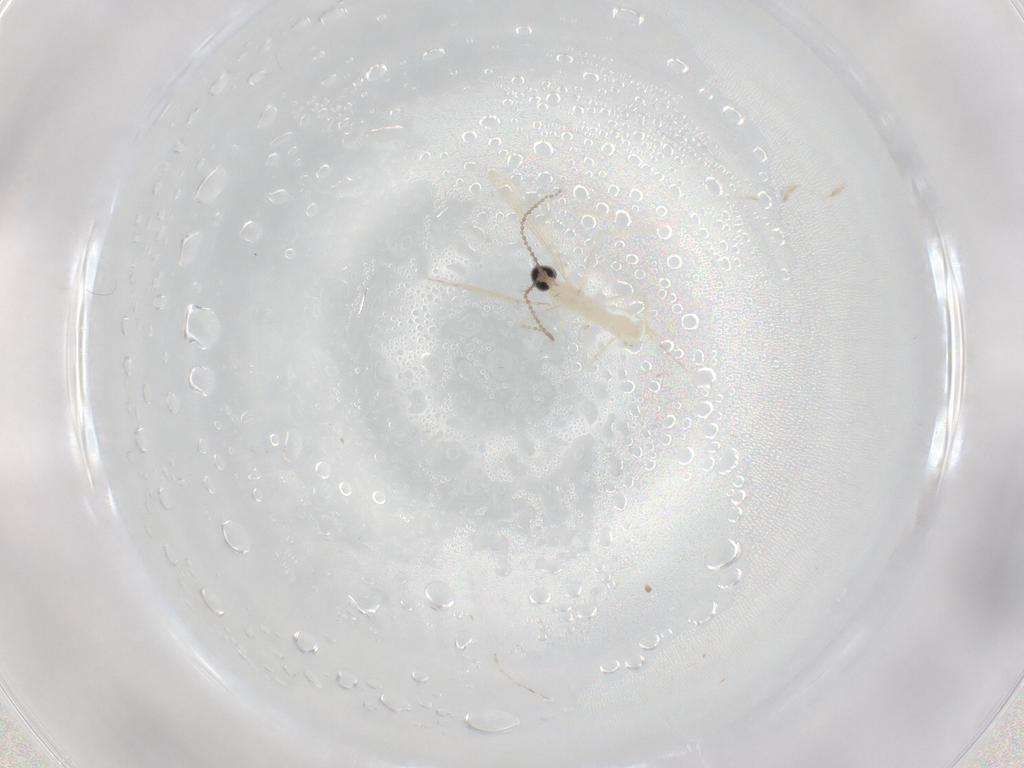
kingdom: Animalia
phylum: Arthropoda
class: Insecta
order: Diptera
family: Cecidomyiidae
